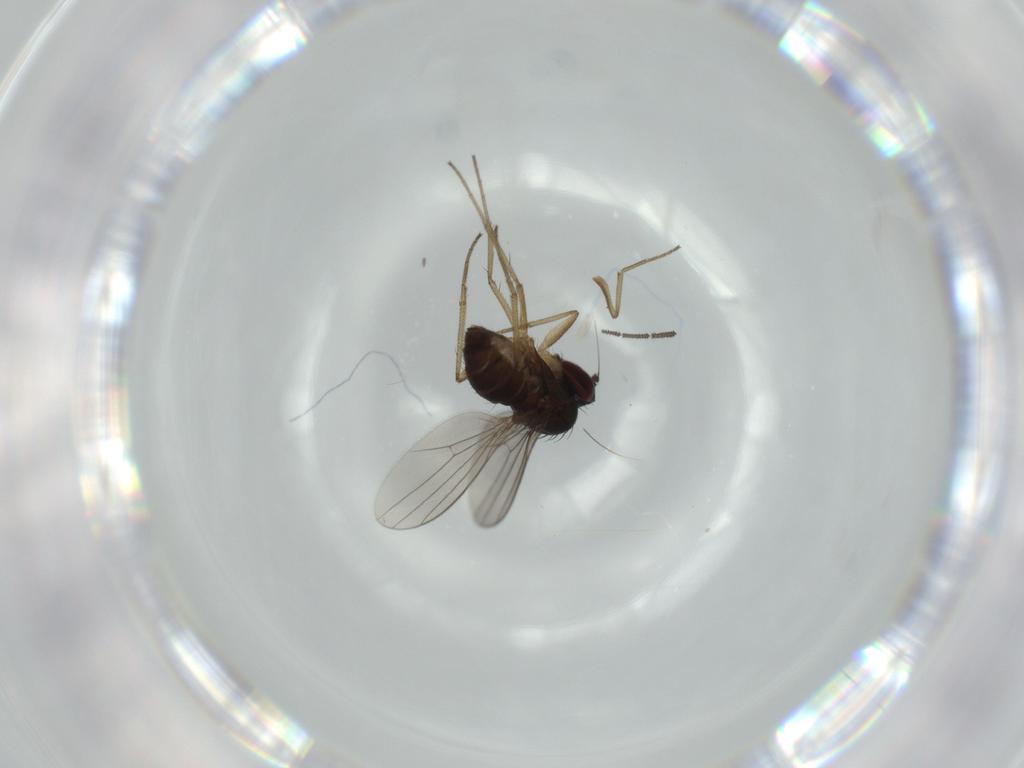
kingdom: Animalia
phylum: Arthropoda
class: Insecta
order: Diptera
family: Dolichopodidae
